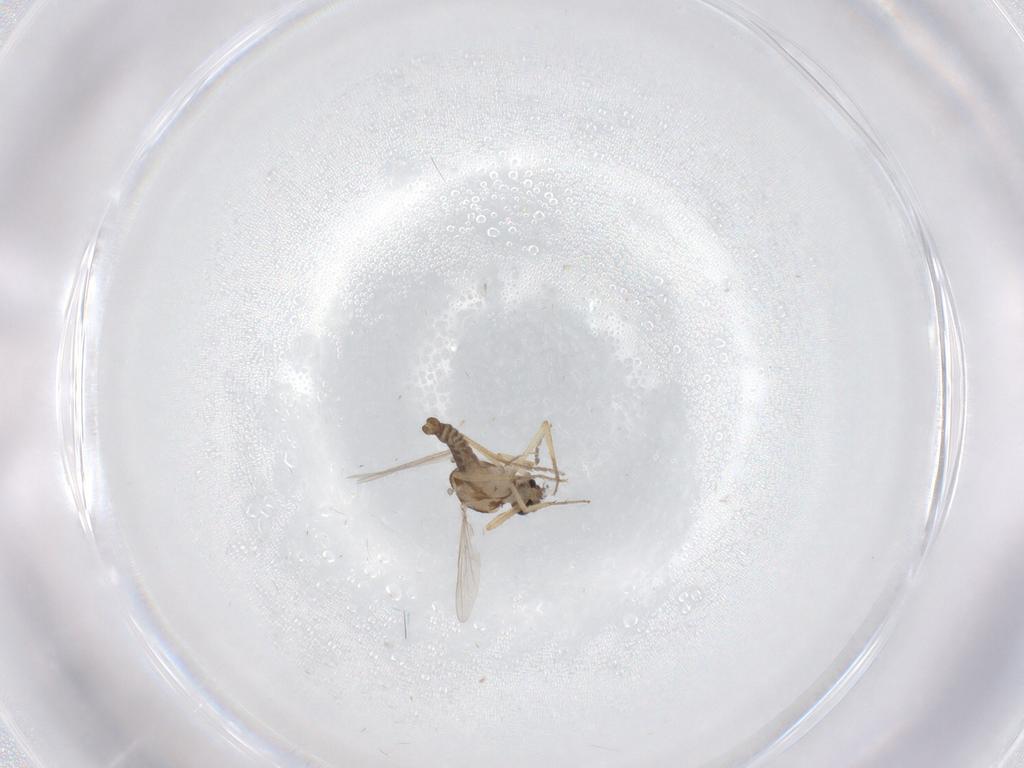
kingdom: Animalia
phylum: Arthropoda
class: Insecta
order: Diptera
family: Ceratopogonidae
